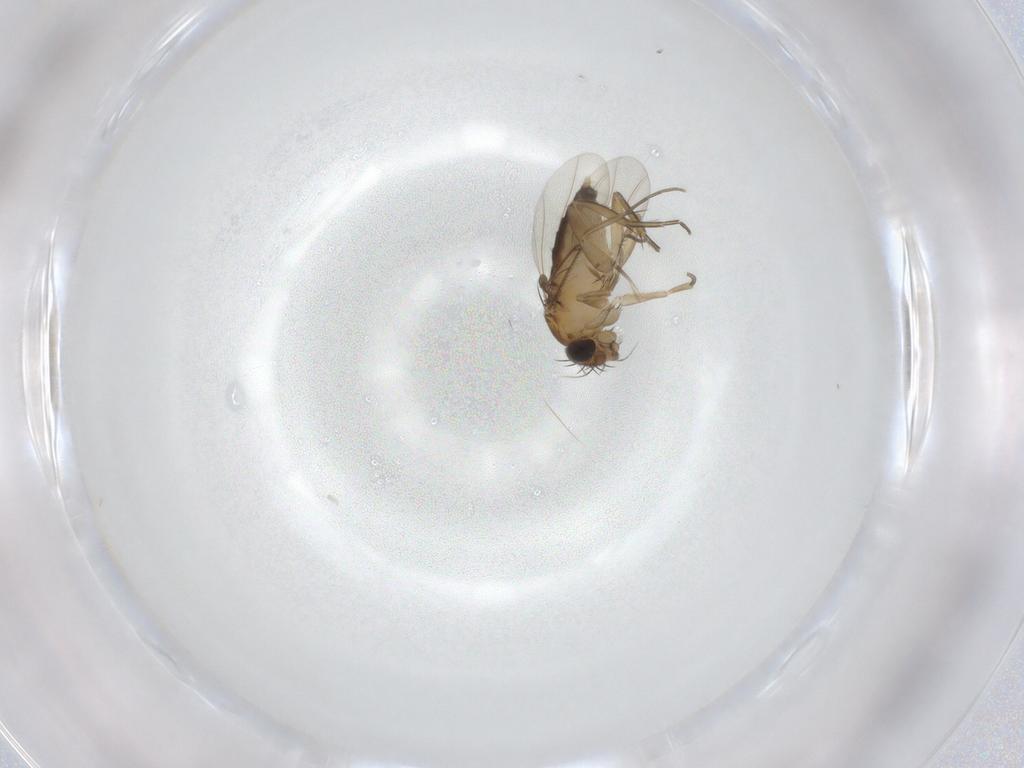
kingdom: Animalia
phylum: Arthropoda
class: Insecta
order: Diptera
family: Phoridae
